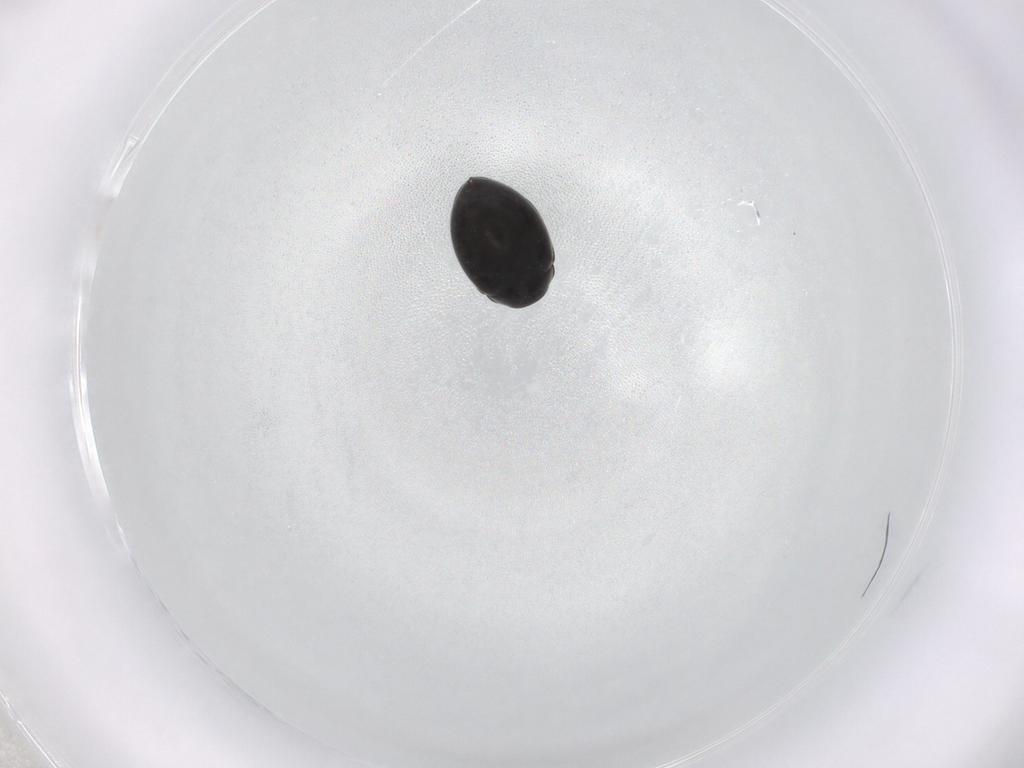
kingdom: Animalia
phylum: Arthropoda
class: Insecta
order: Coleoptera
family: Coccinellidae
